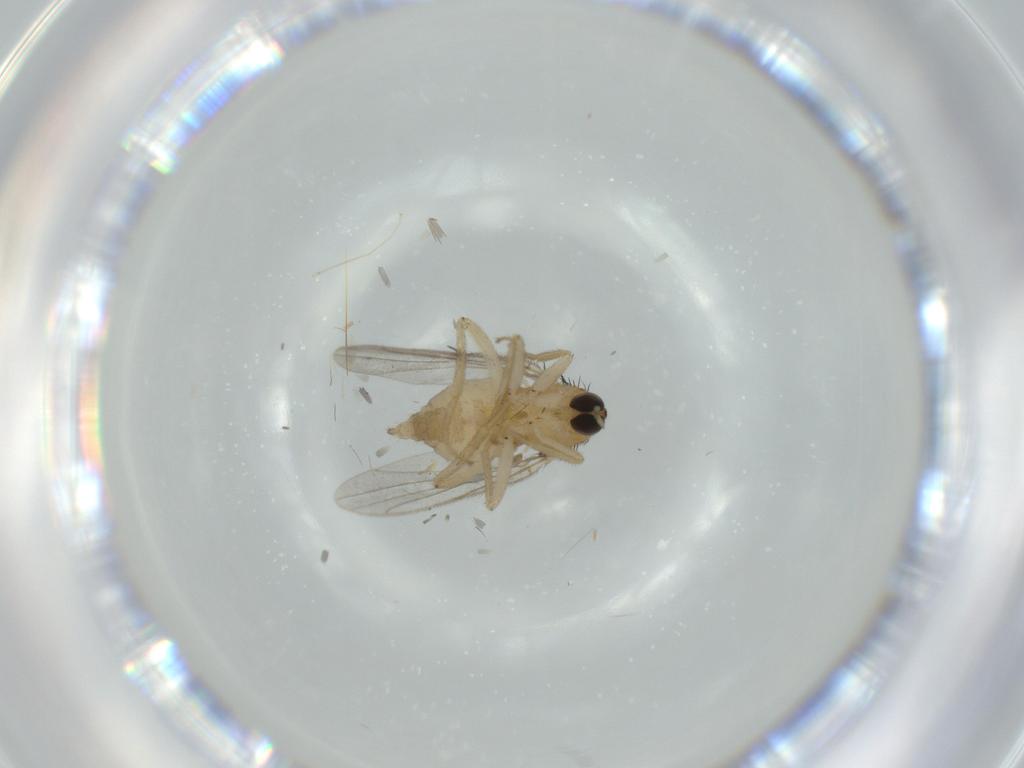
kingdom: Animalia
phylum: Arthropoda
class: Insecta
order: Diptera
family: Hybotidae
